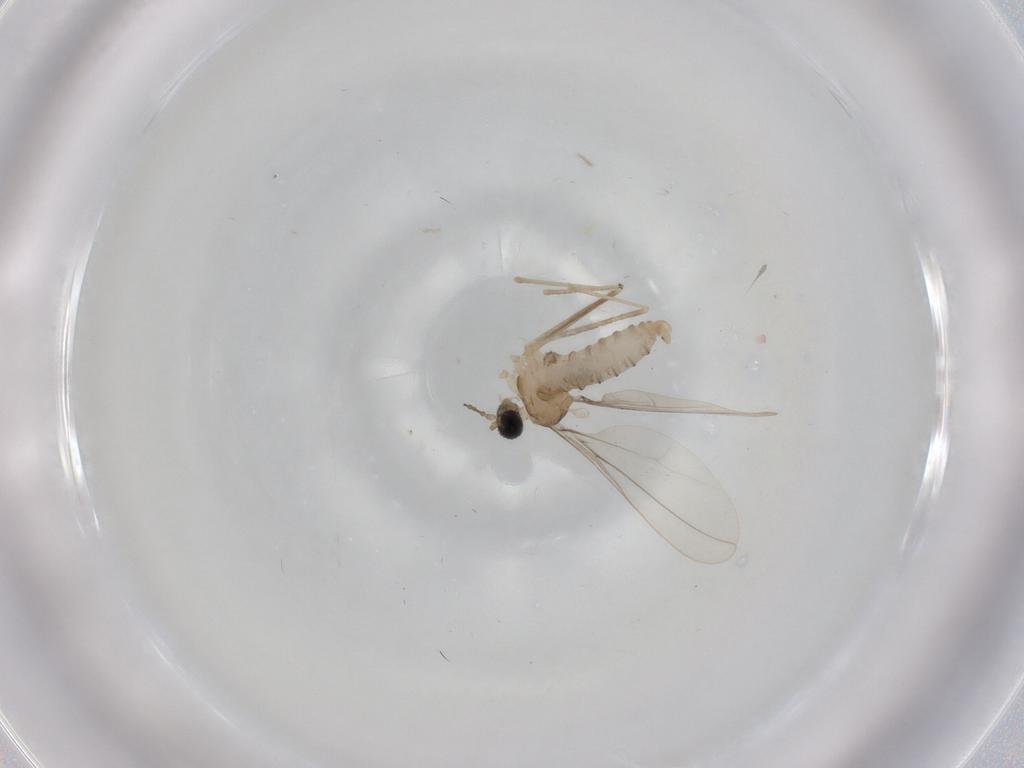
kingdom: Animalia
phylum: Arthropoda
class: Insecta
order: Diptera
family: Cecidomyiidae
